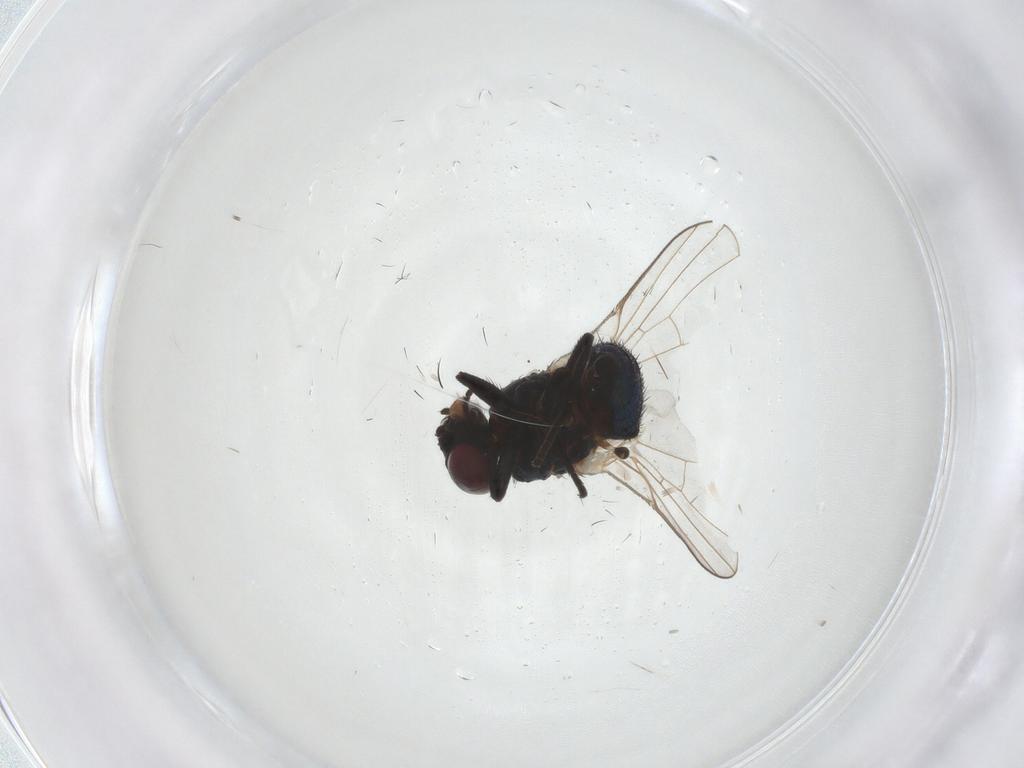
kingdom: Animalia
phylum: Arthropoda
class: Insecta
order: Diptera
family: Agromyzidae
